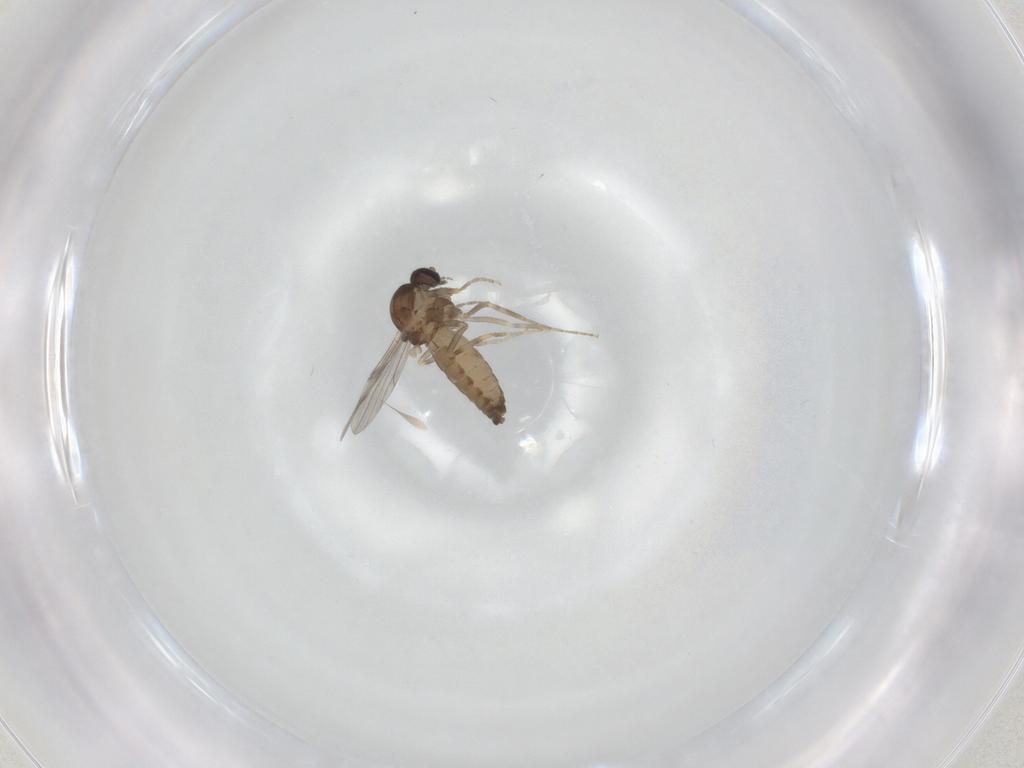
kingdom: Animalia
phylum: Arthropoda
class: Insecta
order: Diptera
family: Ceratopogonidae
